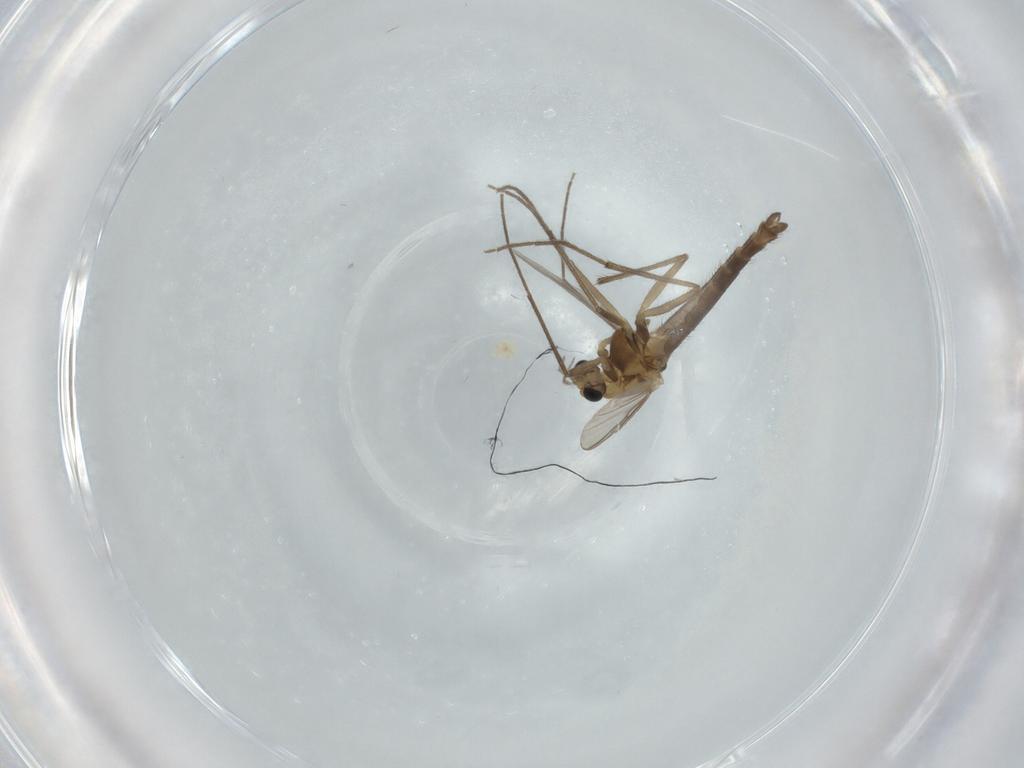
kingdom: Animalia
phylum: Arthropoda
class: Insecta
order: Diptera
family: Chironomidae
